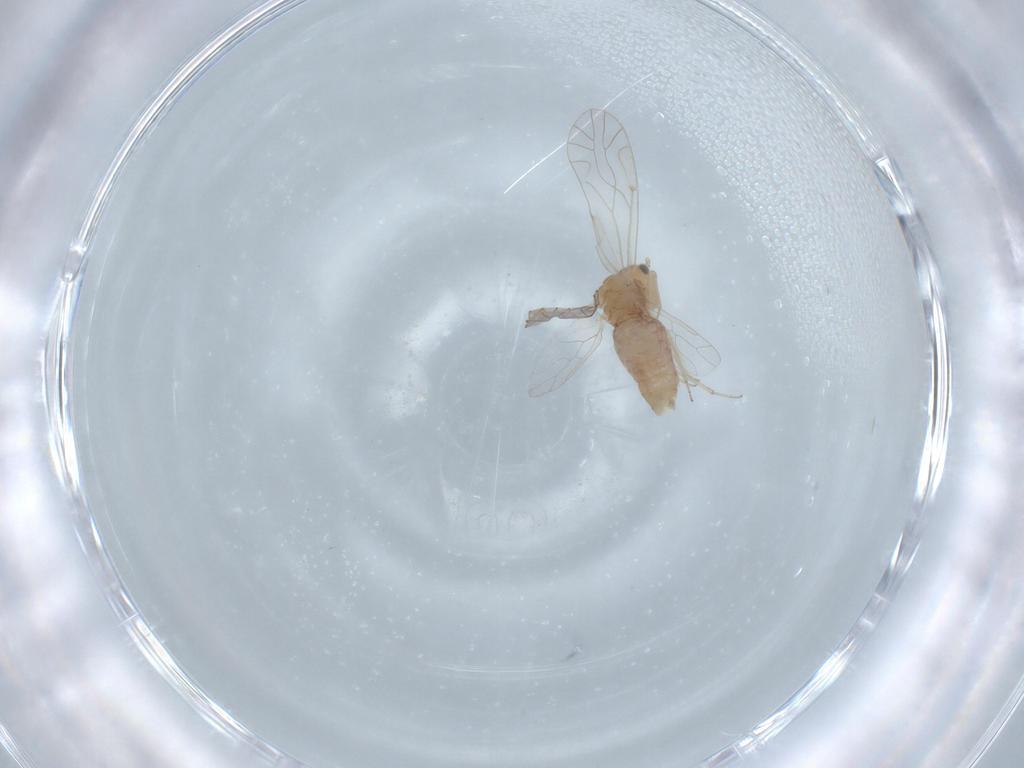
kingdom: Animalia
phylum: Arthropoda
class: Insecta
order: Psocodea
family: Lachesillidae
